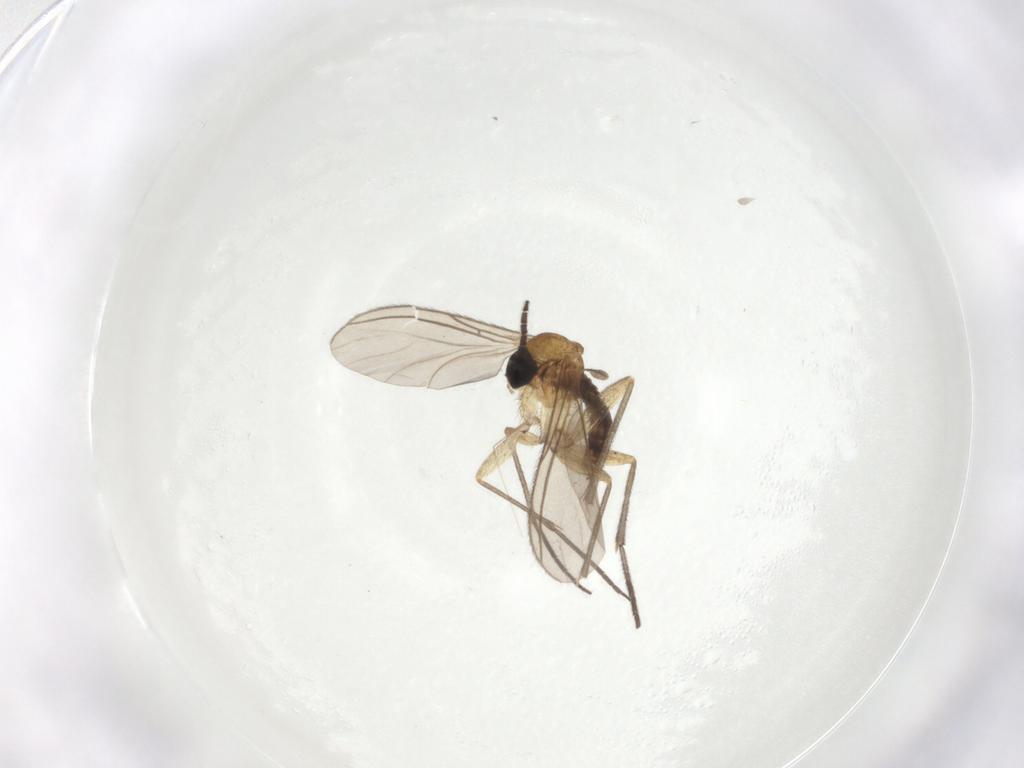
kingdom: Animalia
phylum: Arthropoda
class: Insecta
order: Diptera
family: Sciaridae
